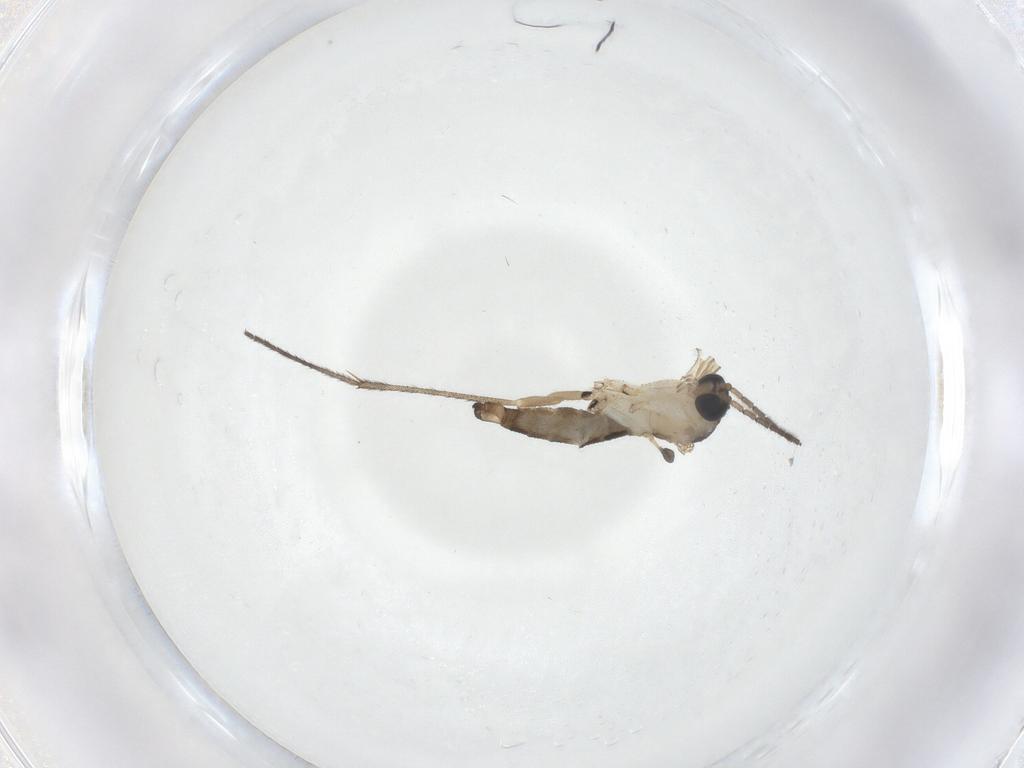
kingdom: Animalia
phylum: Arthropoda
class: Insecta
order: Diptera
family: Sciaridae
